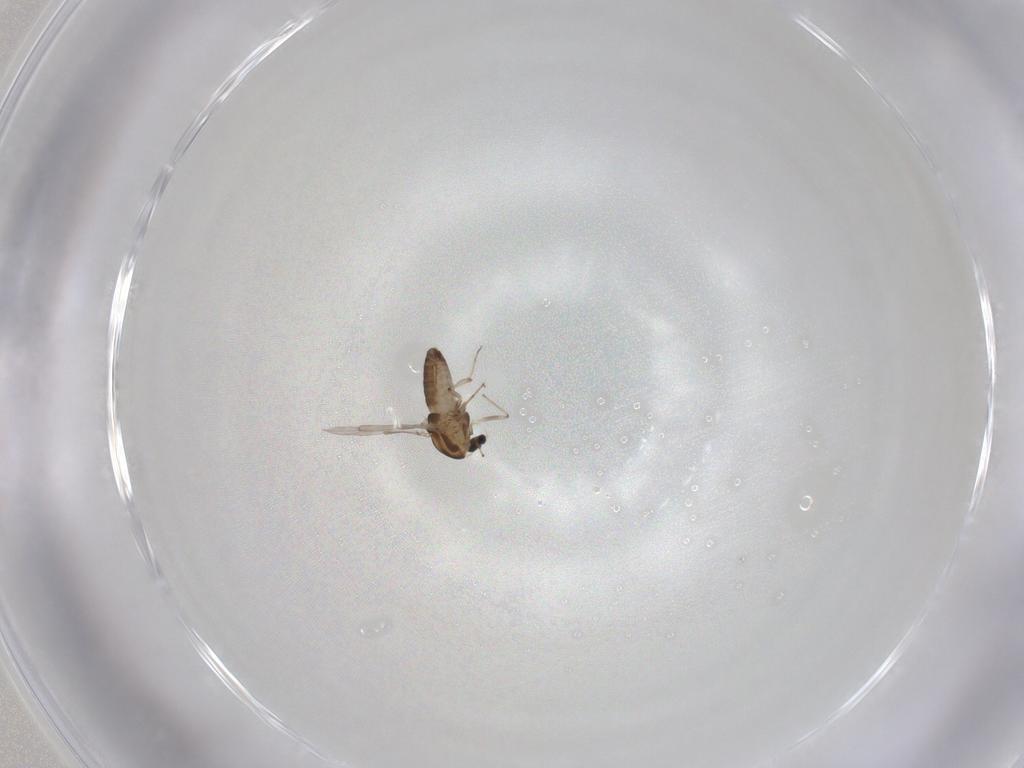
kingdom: Animalia
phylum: Arthropoda
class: Insecta
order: Diptera
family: Chironomidae
